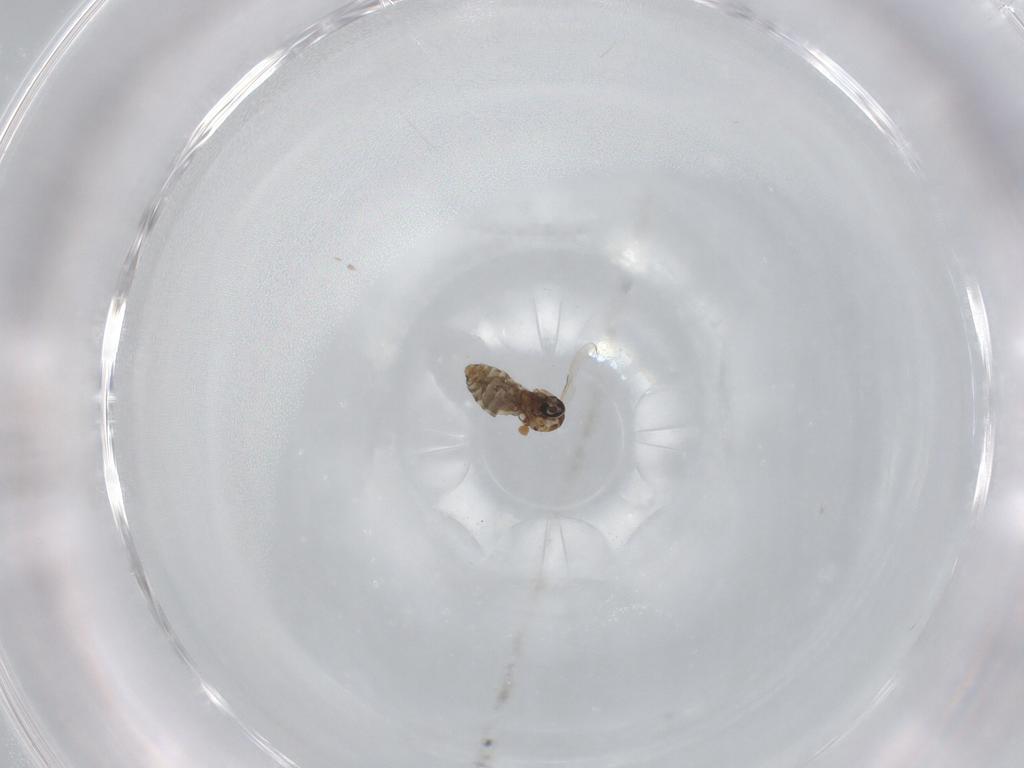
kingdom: Animalia
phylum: Arthropoda
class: Insecta
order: Diptera
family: Ceratopogonidae
